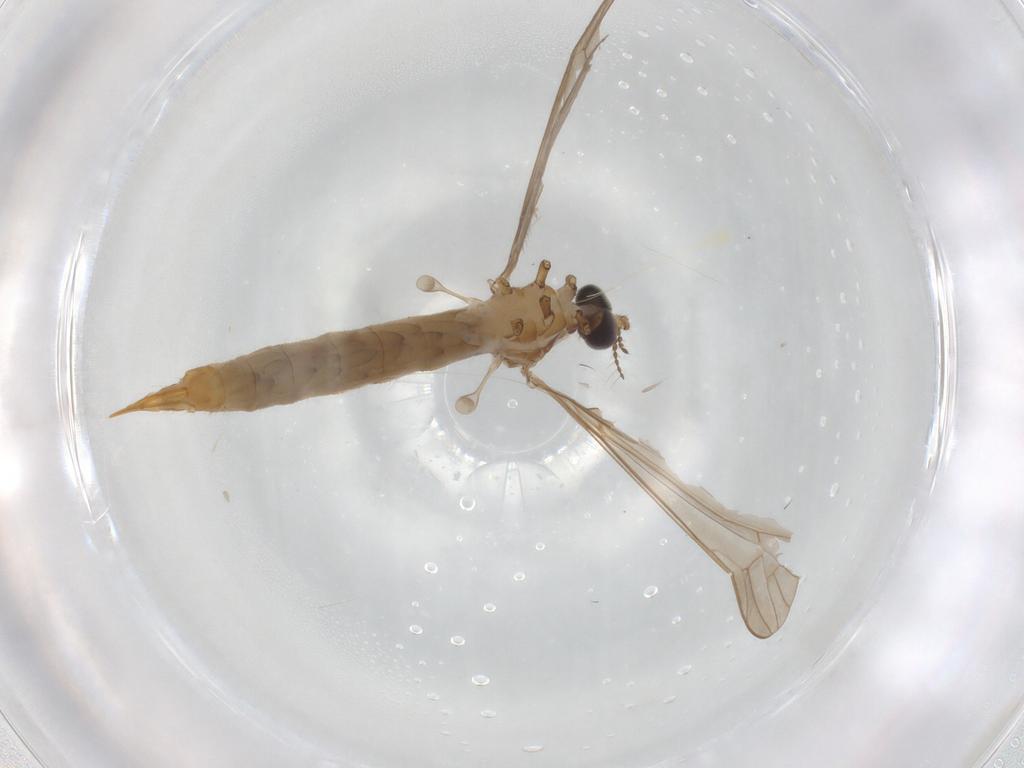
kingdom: Animalia
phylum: Arthropoda
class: Insecta
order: Diptera
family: Limoniidae
